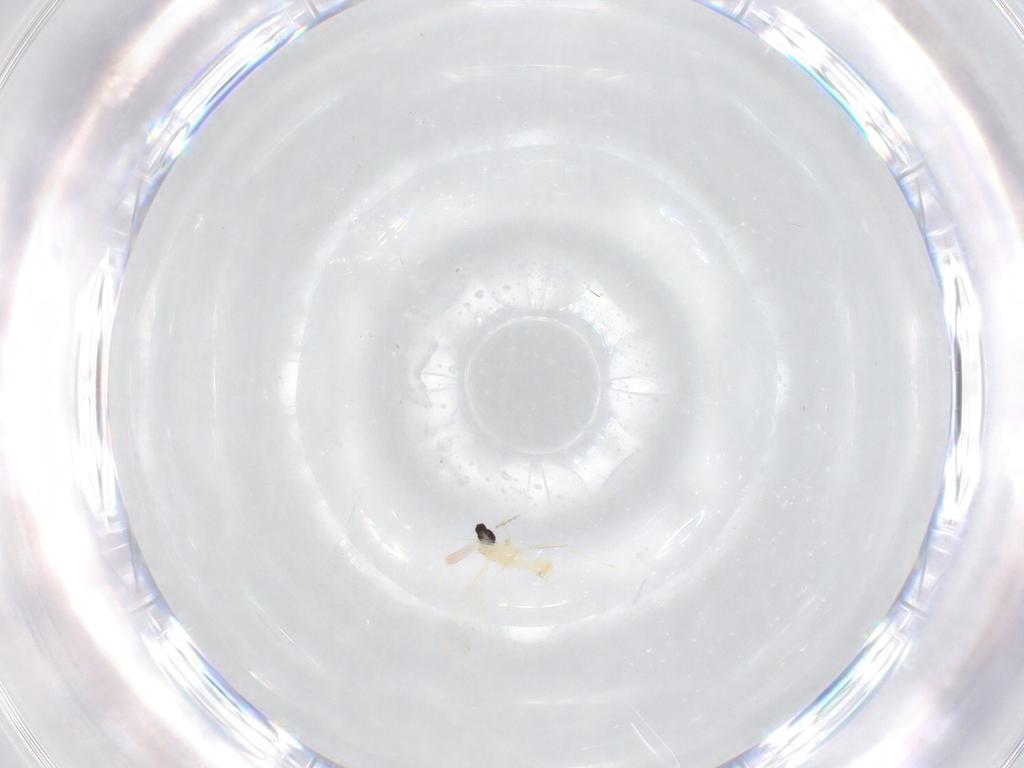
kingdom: Animalia
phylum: Arthropoda
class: Insecta
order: Diptera
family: Cecidomyiidae
